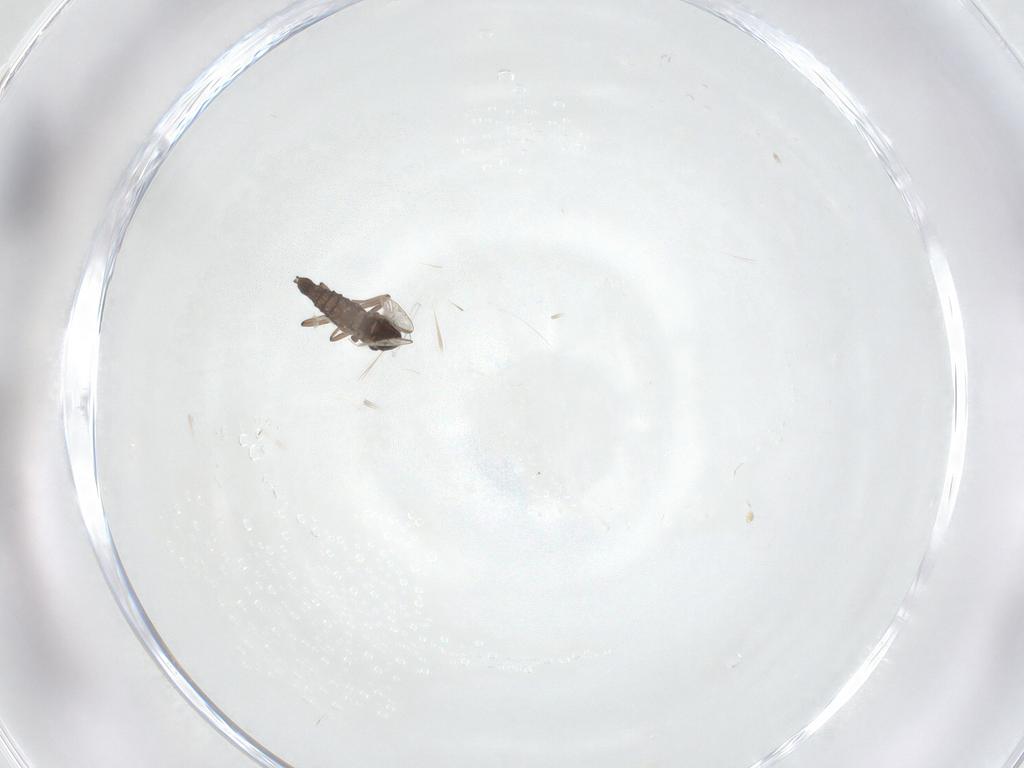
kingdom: Animalia
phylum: Arthropoda
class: Insecta
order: Diptera
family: Chironomidae
